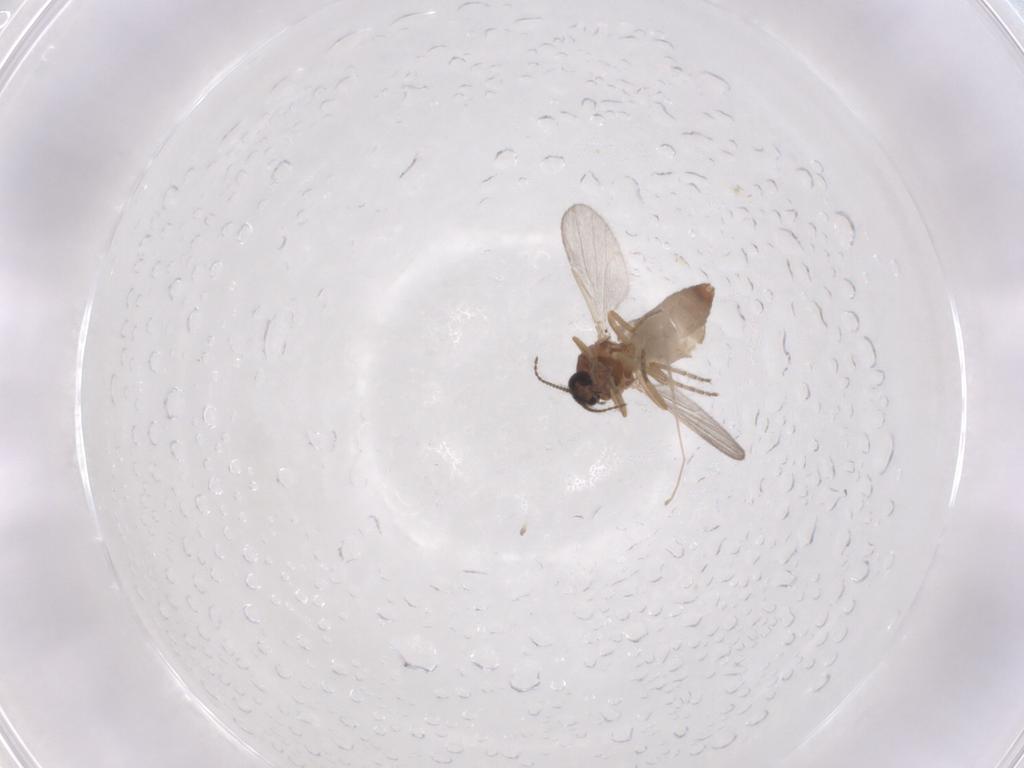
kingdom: Animalia
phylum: Arthropoda
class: Insecta
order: Diptera
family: Ceratopogonidae
